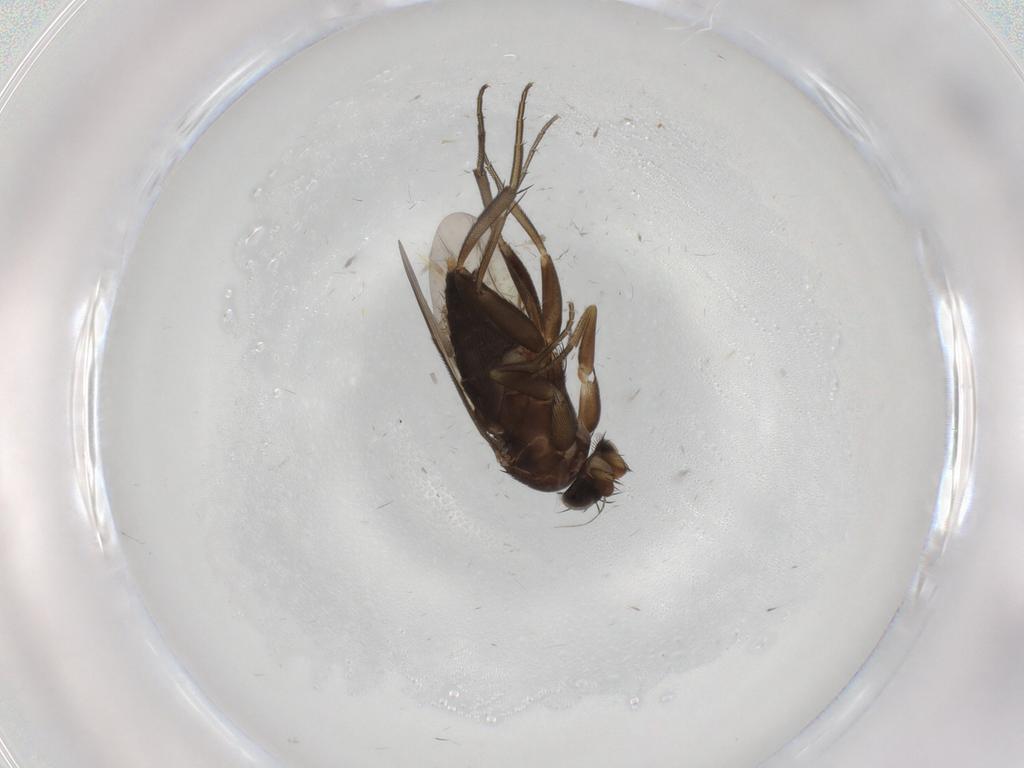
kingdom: Animalia
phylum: Arthropoda
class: Insecta
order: Diptera
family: Phoridae
